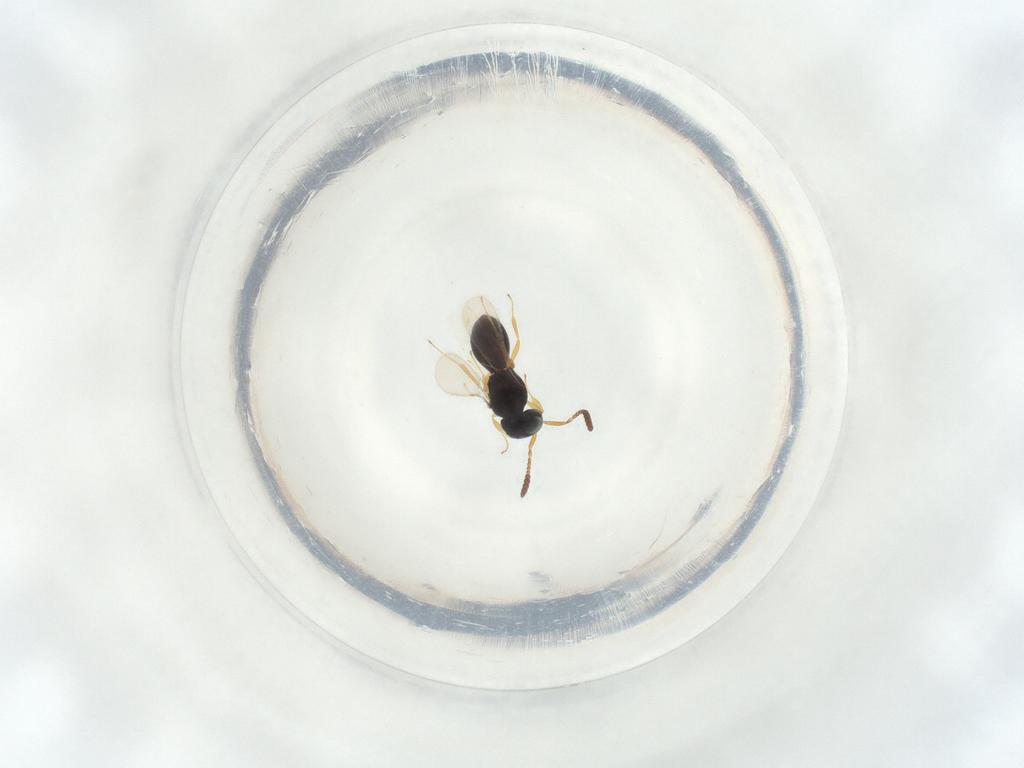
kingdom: Animalia
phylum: Arthropoda
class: Insecta
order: Hymenoptera
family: Scelionidae
